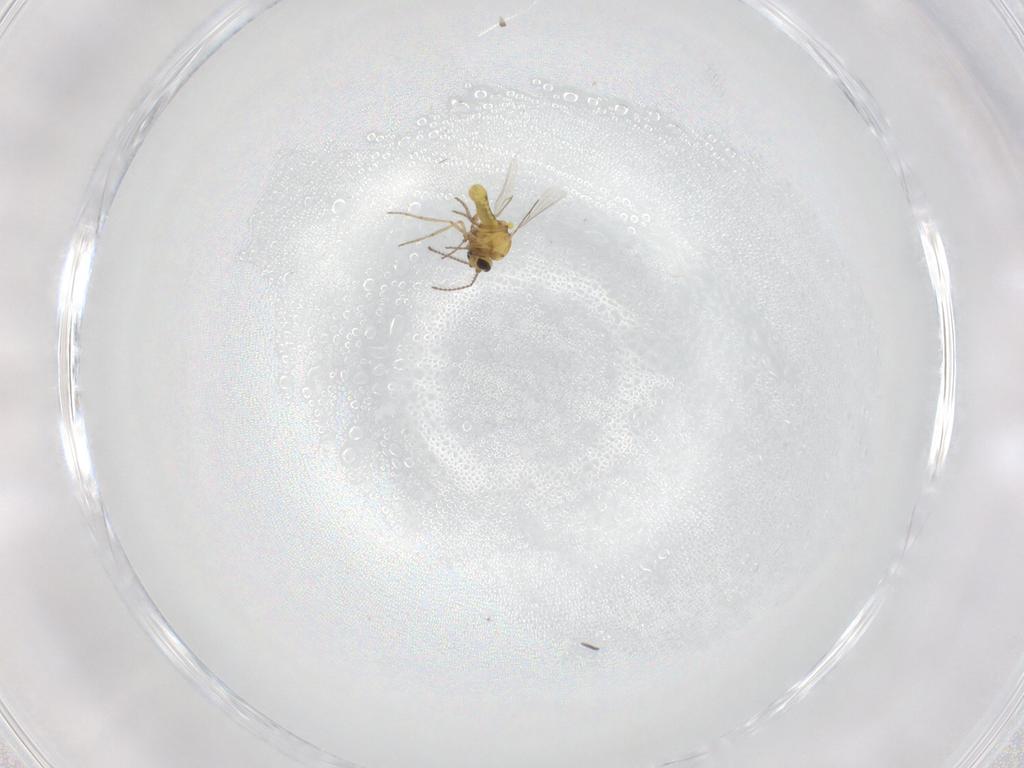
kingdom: Animalia
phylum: Arthropoda
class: Insecta
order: Diptera
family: Ceratopogonidae
